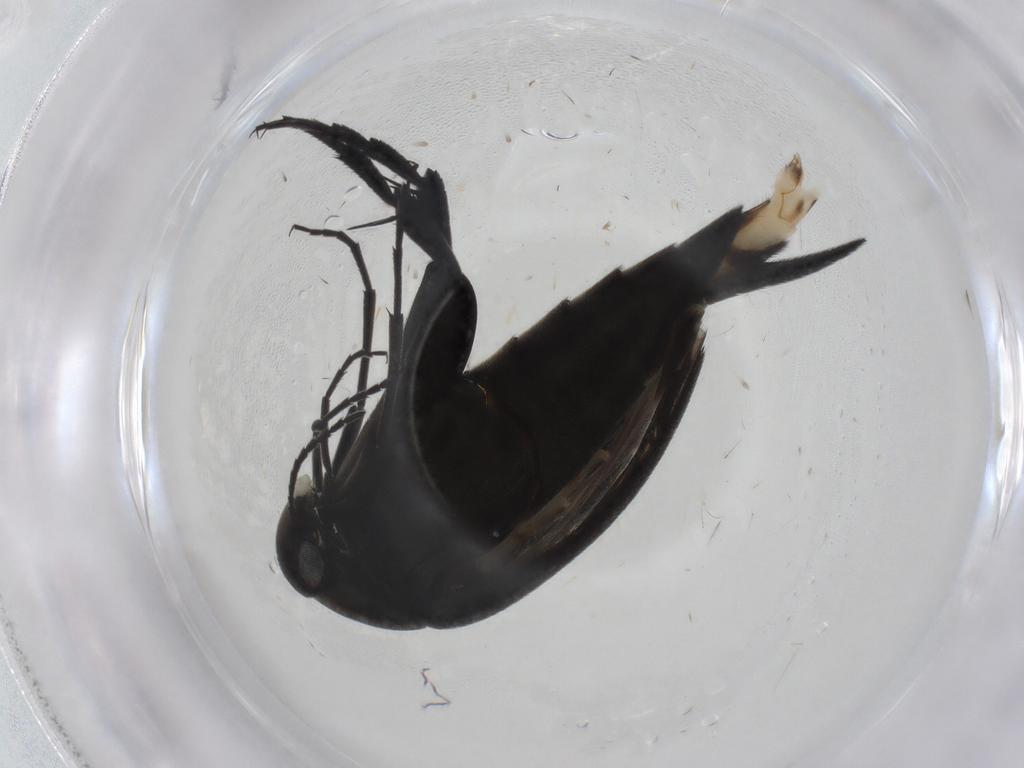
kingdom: Animalia
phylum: Arthropoda
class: Insecta
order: Coleoptera
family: Mordellidae
